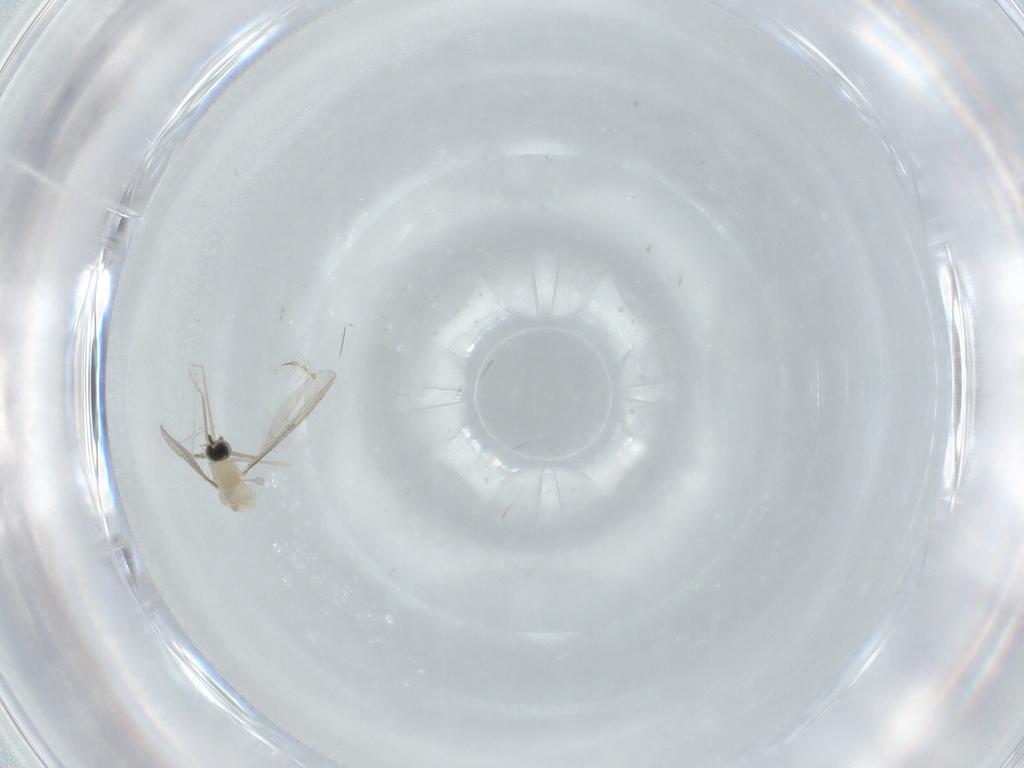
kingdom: Animalia
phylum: Arthropoda
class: Insecta
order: Diptera
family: Cecidomyiidae
